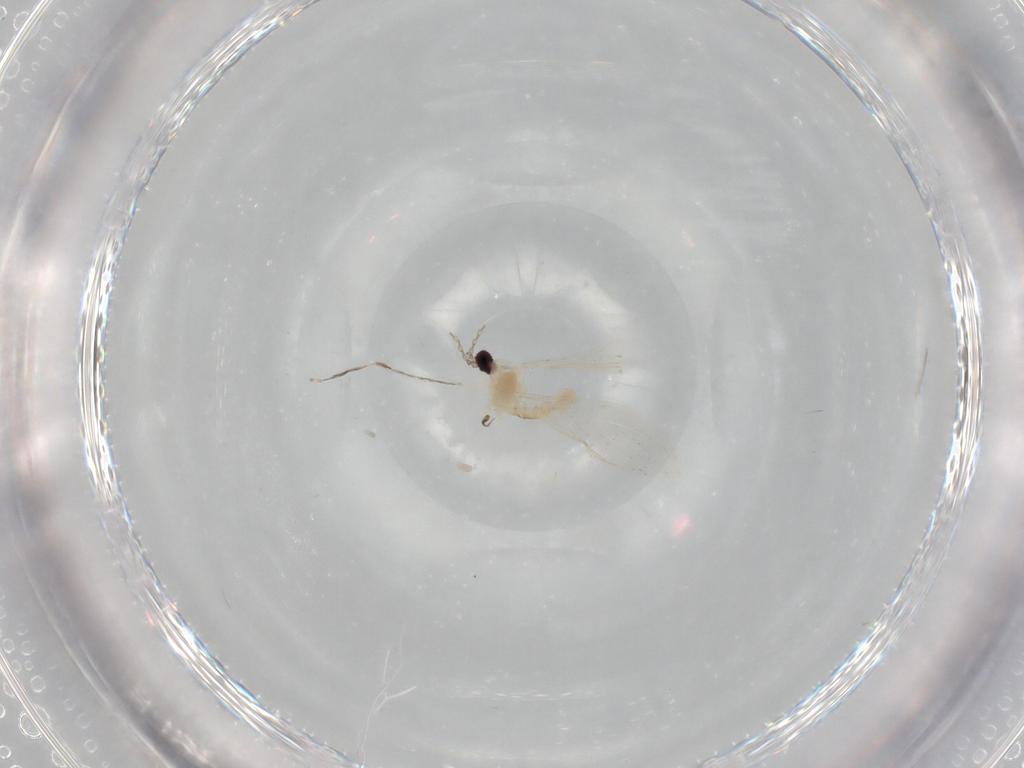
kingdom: Animalia
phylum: Arthropoda
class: Insecta
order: Diptera
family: Cecidomyiidae
